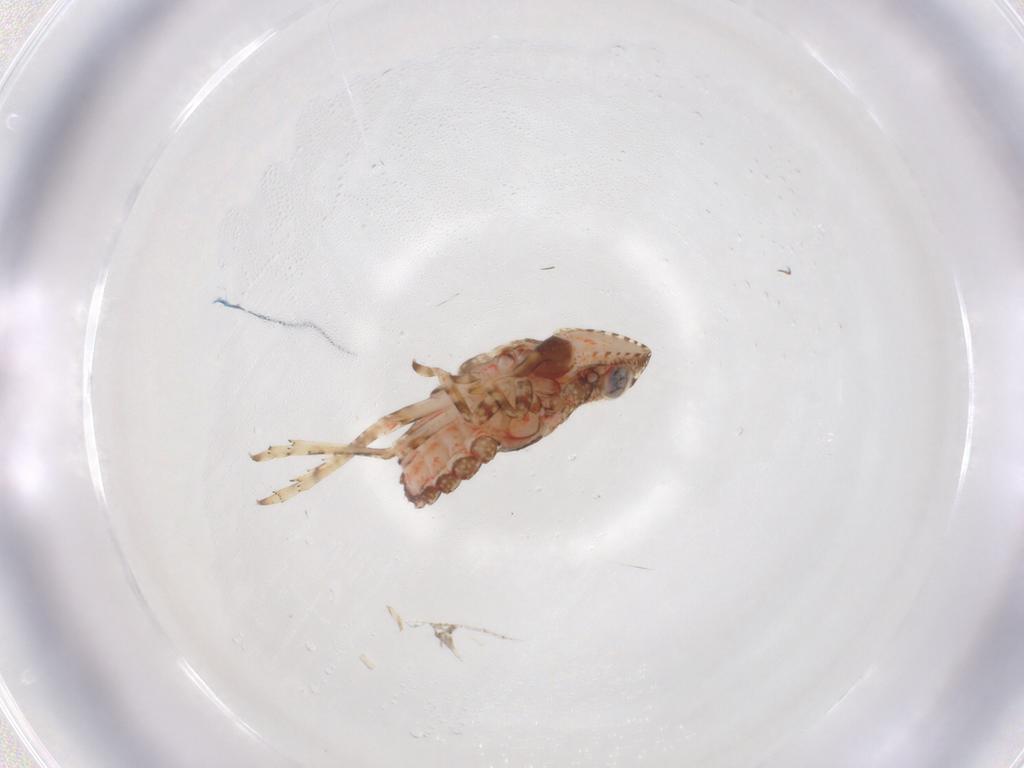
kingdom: Animalia
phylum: Arthropoda
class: Insecta
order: Hemiptera
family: Tropiduchidae
